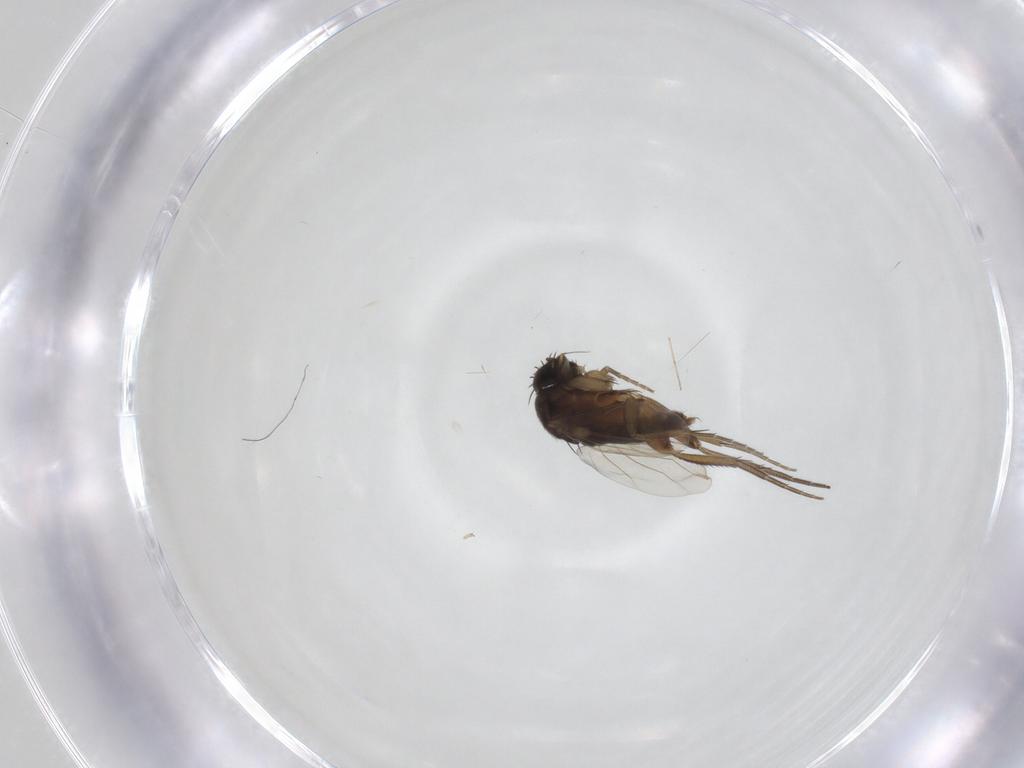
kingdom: Animalia
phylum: Arthropoda
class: Insecta
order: Diptera
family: Phoridae
